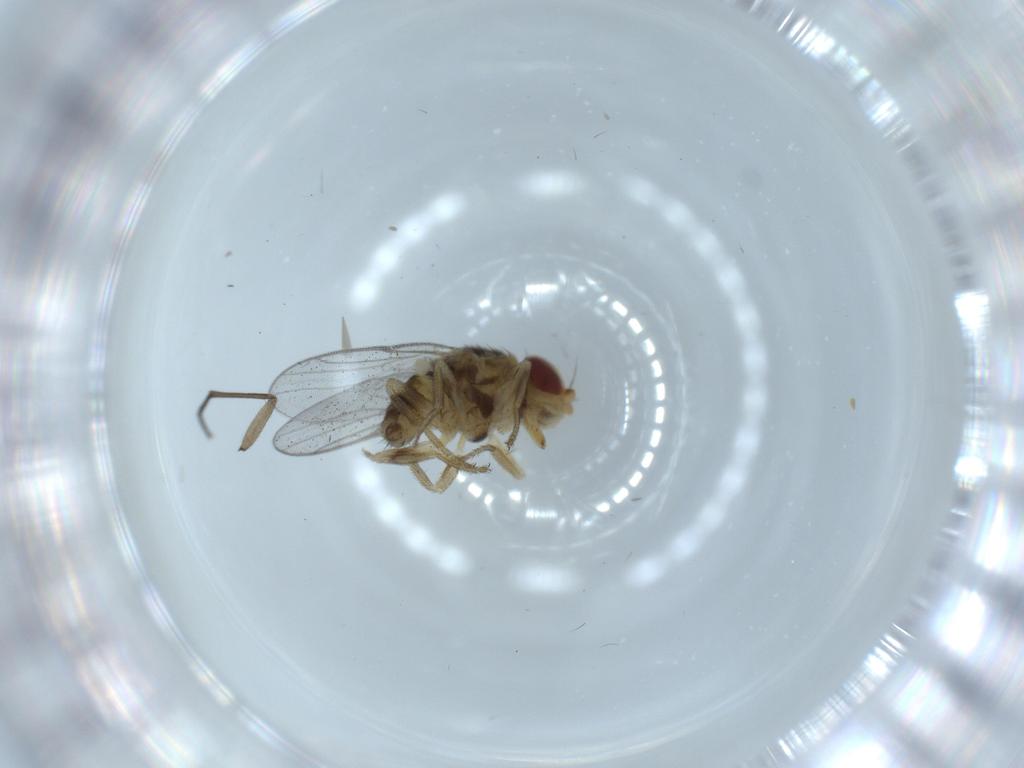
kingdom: Animalia
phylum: Arthropoda
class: Insecta
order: Diptera
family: Chloropidae
